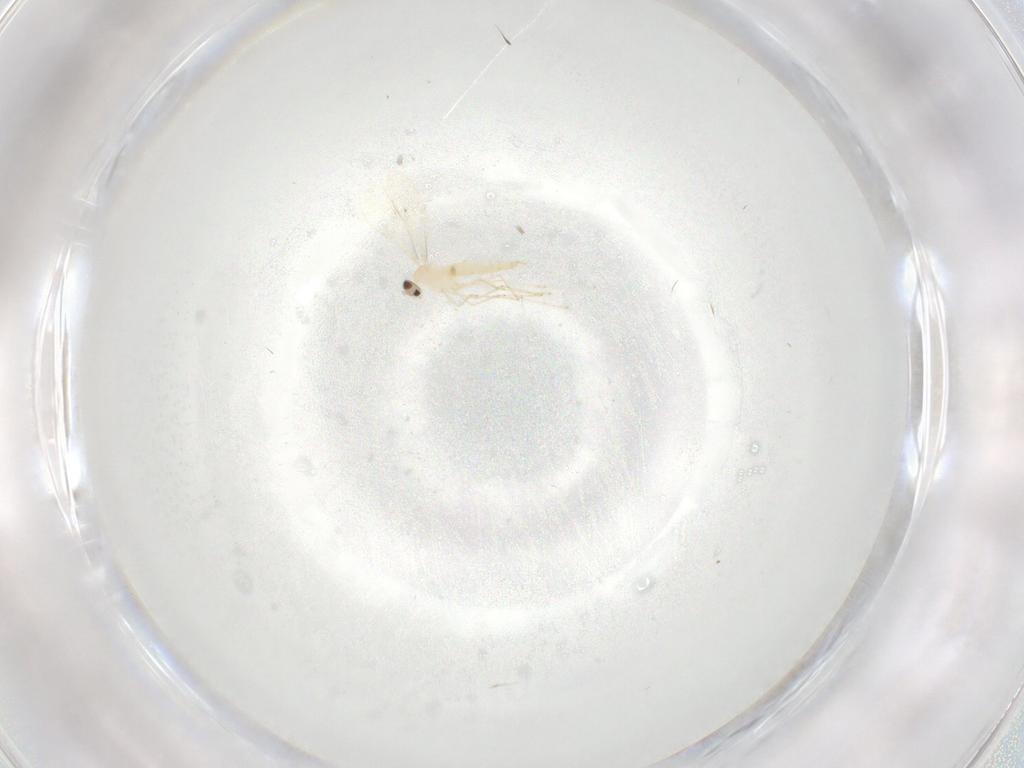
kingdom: Animalia
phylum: Arthropoda
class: Insecta
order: Diptera
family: Cecidomyiidae
